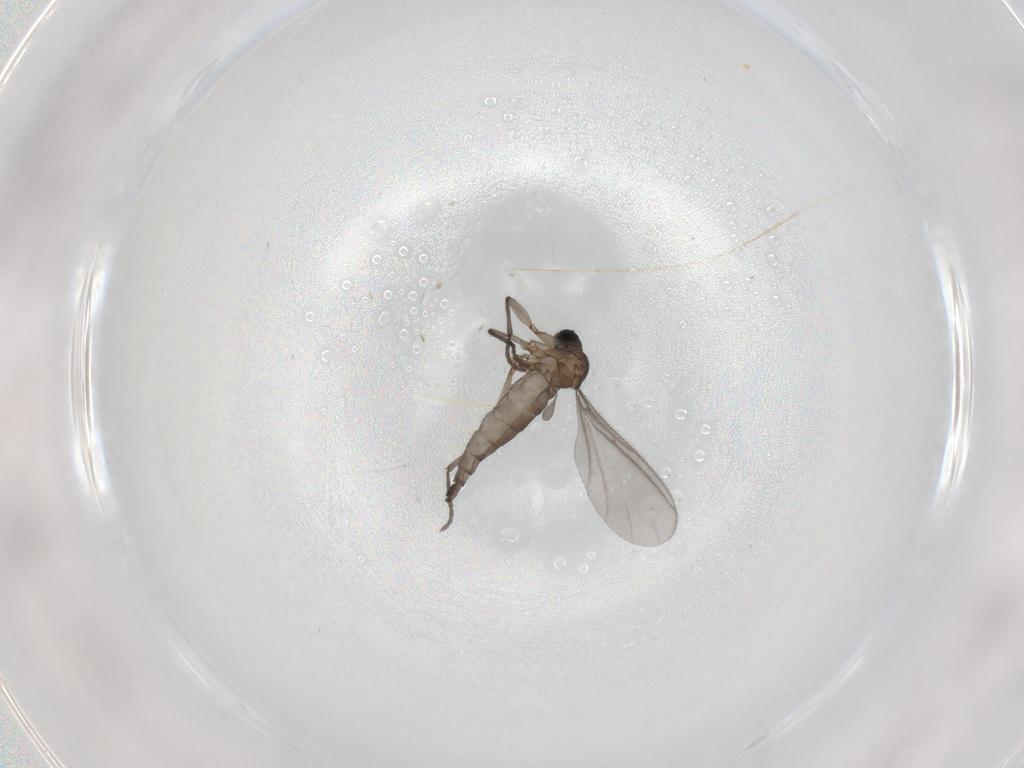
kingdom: Animalia
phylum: Arthropoda
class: Insecta
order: Diptera
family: Sciaridae
